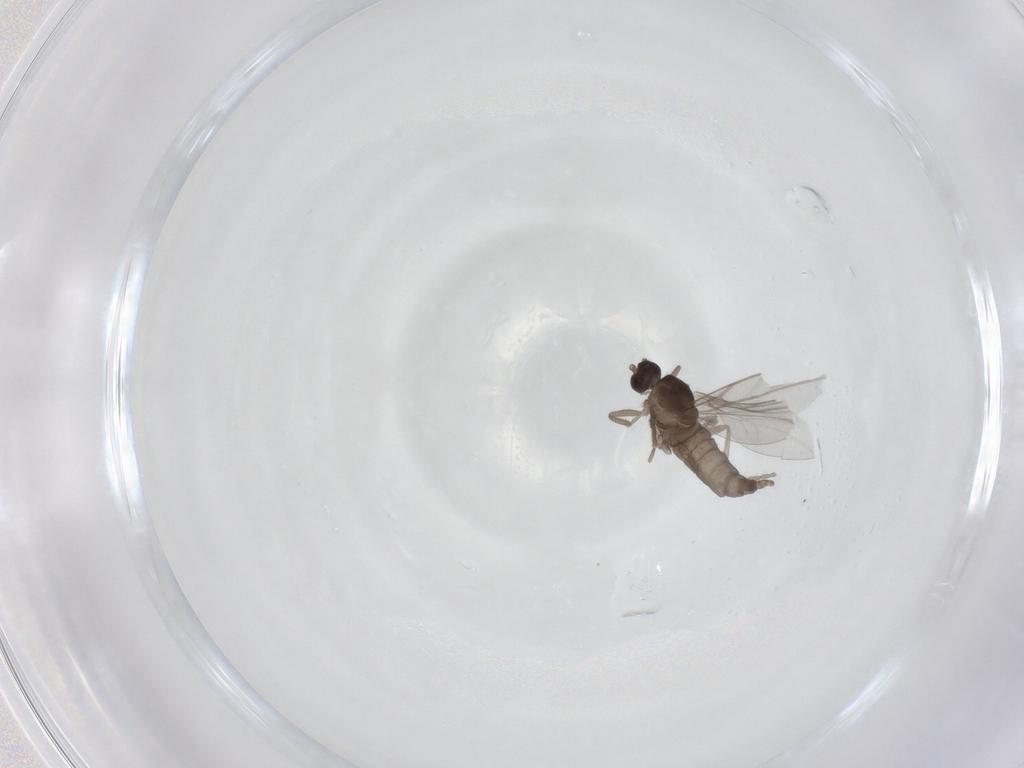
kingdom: Animalia
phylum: Arthropoda
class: Insecta
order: Diptera
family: Cecidomyiidae
